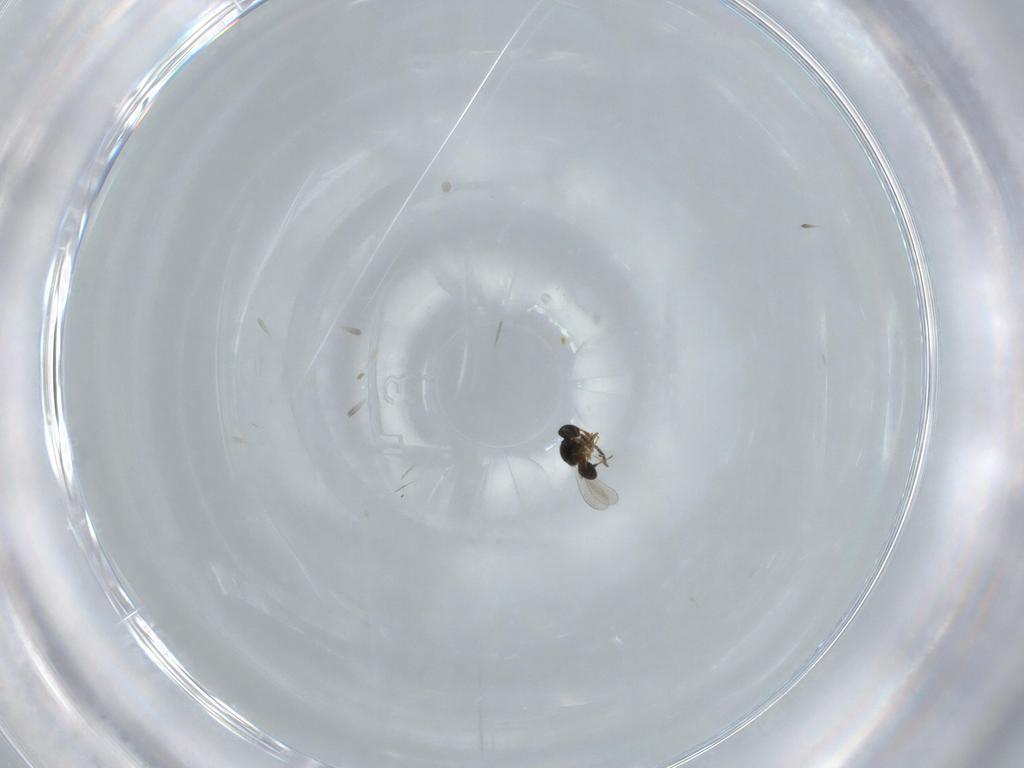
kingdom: Animalia
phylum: Arthropoda
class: Insecta
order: Hymenoptera
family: Platygastridae
